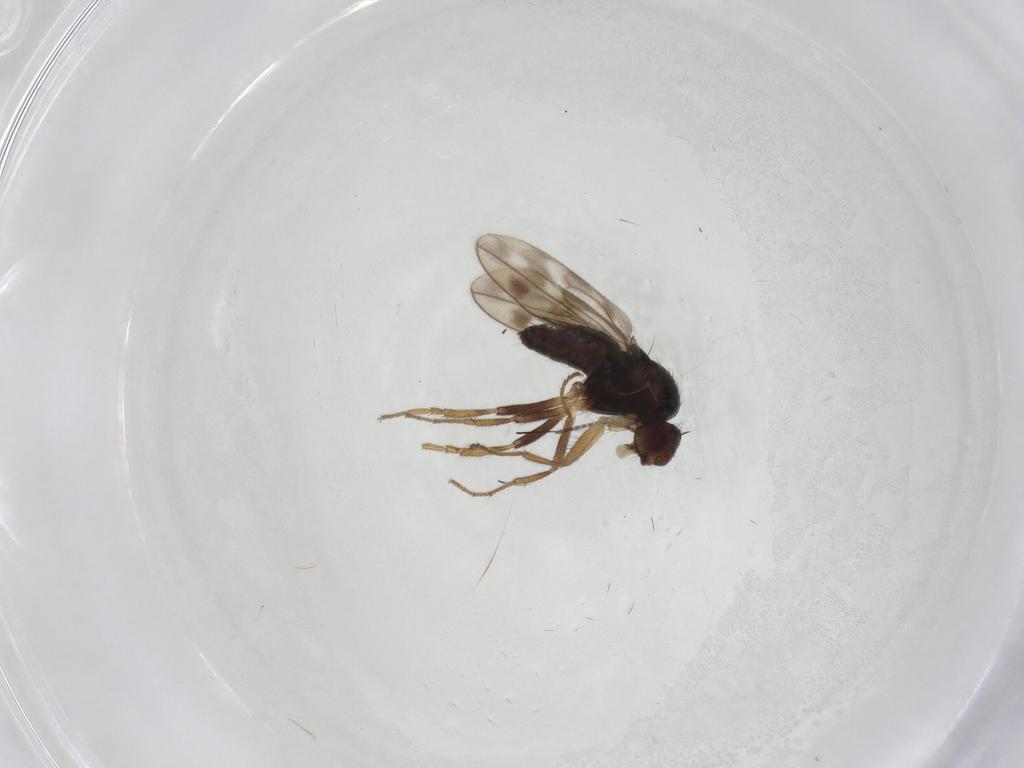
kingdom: Animalia
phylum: Arthropoda
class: Insecta
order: Diptera
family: Sphaeroceridae
